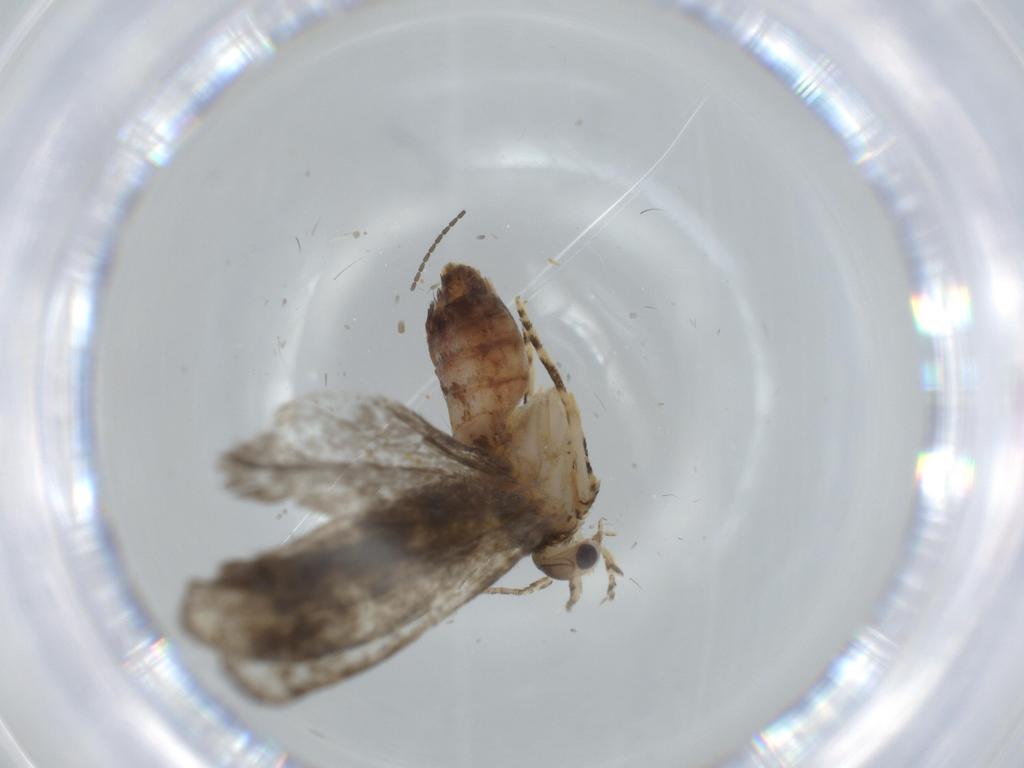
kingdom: Animalia
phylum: Arthropoda
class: Insecta
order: Lepidoptera
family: Tineidae
